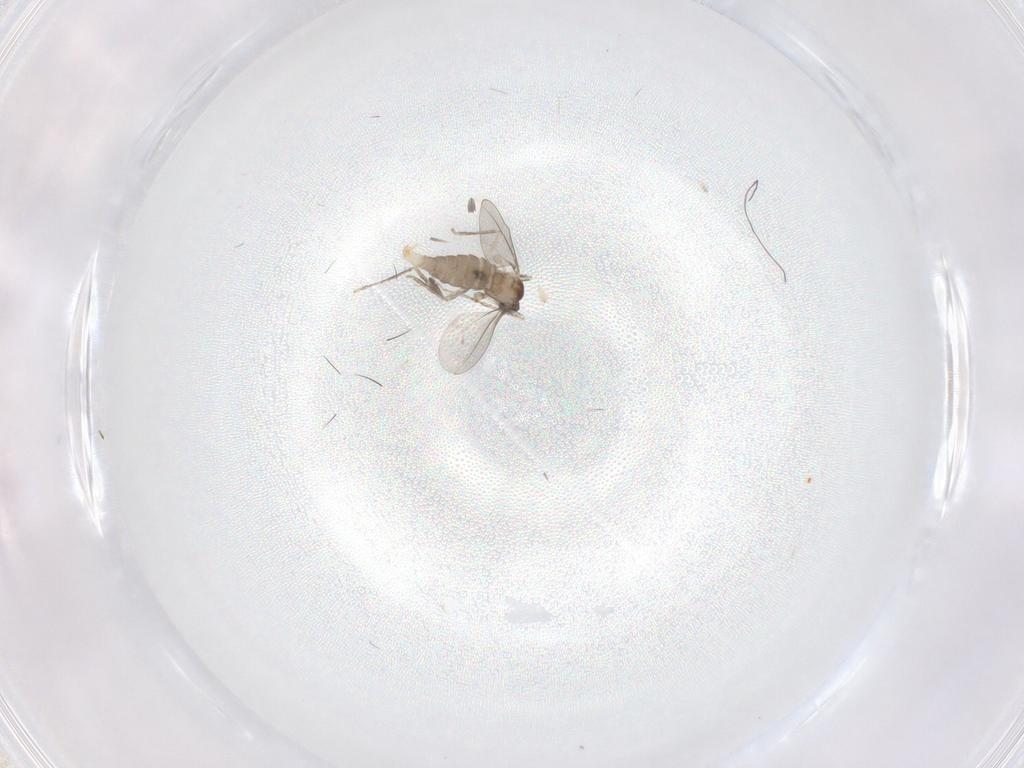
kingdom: Animalia
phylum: Arthropoda
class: Insecta
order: Diptera
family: Cecidomyiidae
